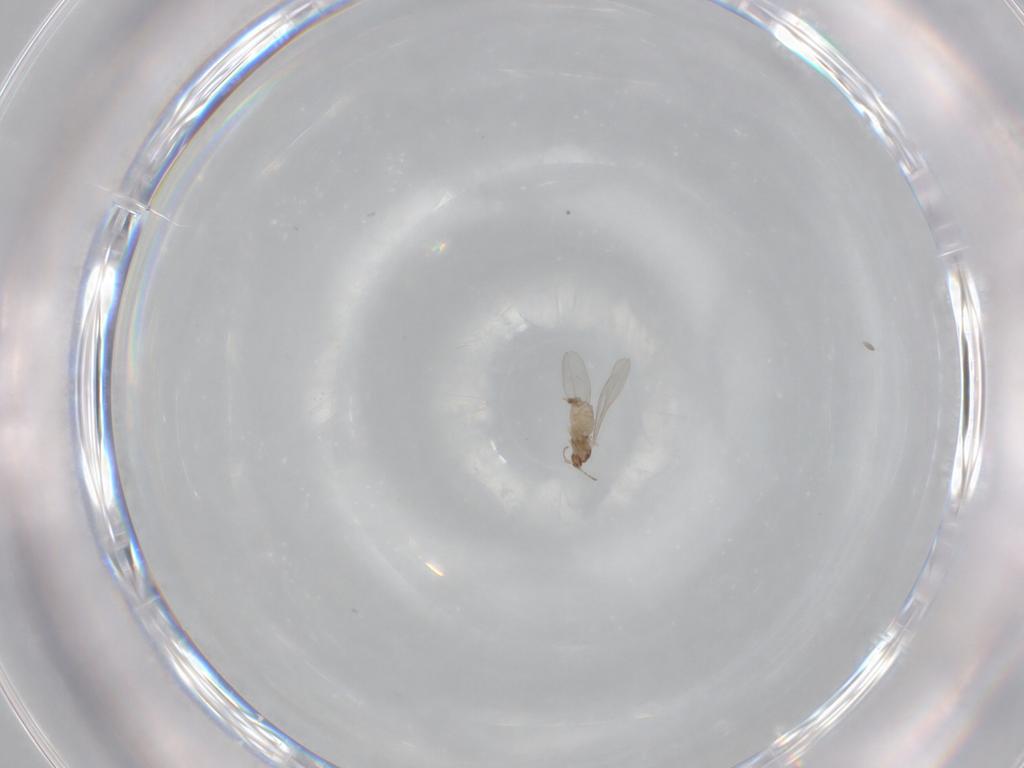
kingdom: Animalia
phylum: Arthropoda
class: Insecta
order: Diptera
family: Cecidomyiidae
